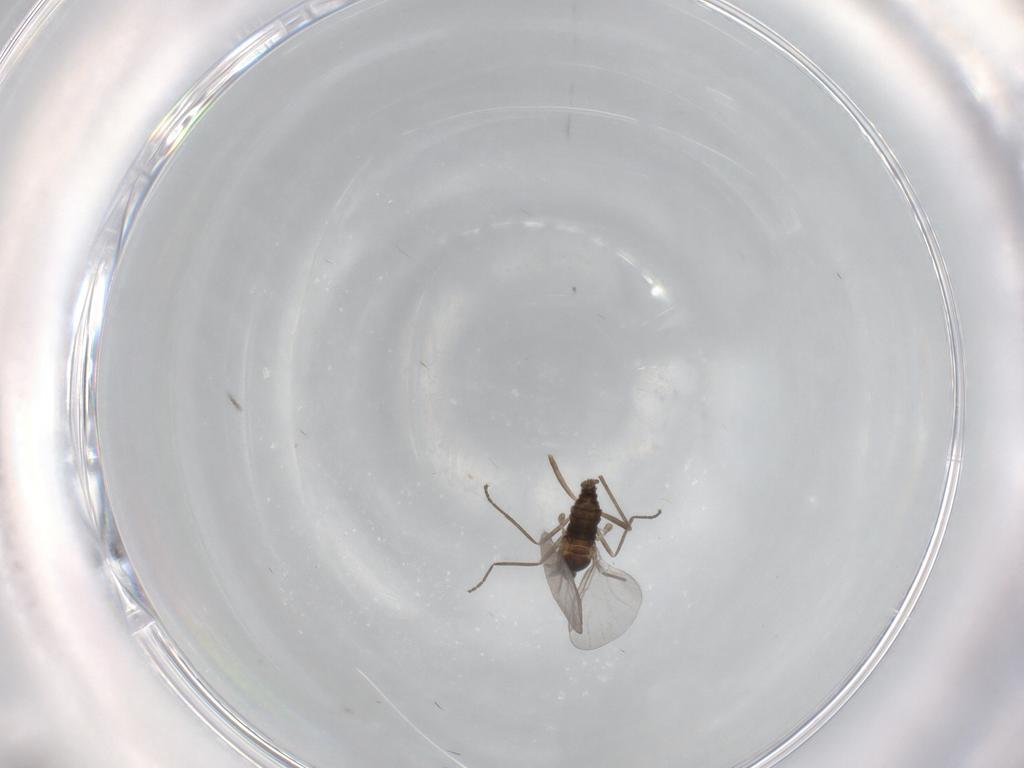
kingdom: Animalia
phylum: Arthropoda
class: Insecta
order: Diptera
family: Cecidomyiidae
